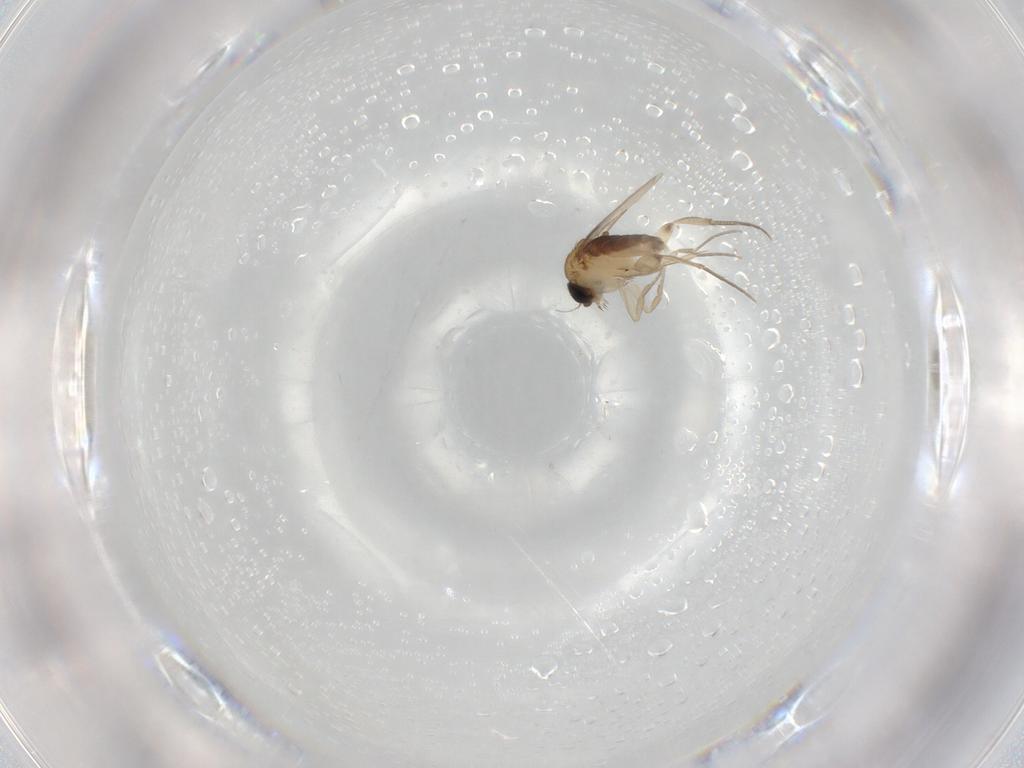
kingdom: Animalia
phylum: Arthropoda
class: Insecta
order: Diptera
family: Phoridae
